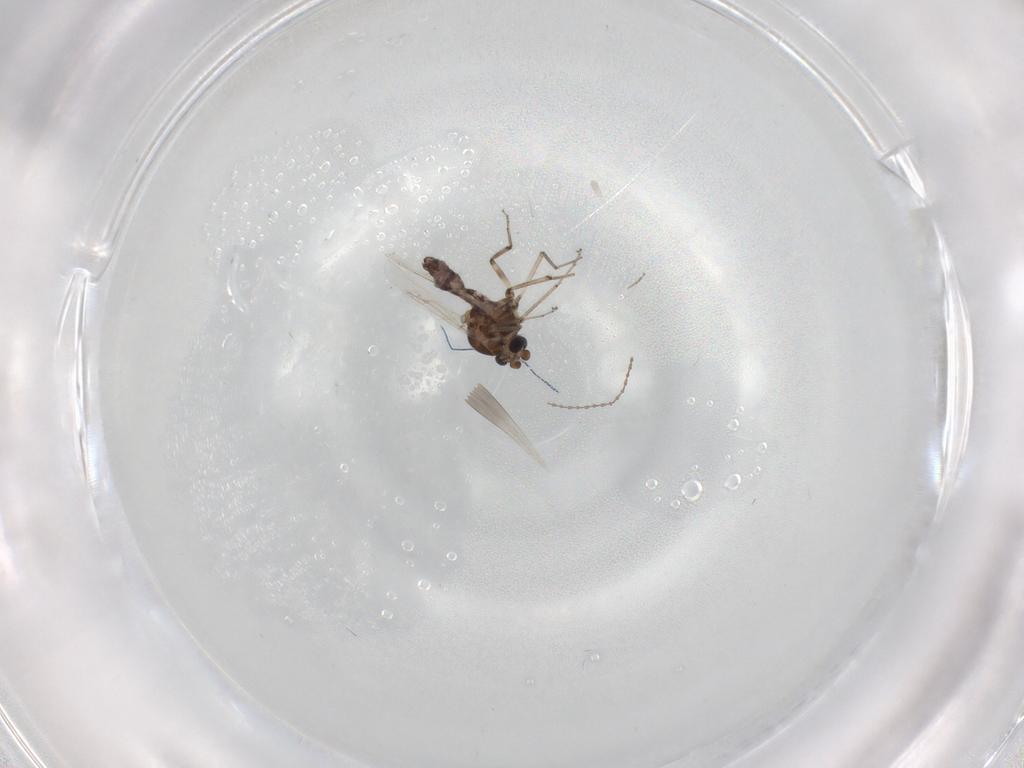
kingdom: Animalia
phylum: Arthropoda
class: Insecta
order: Diptera
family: Ceratopogonidae
